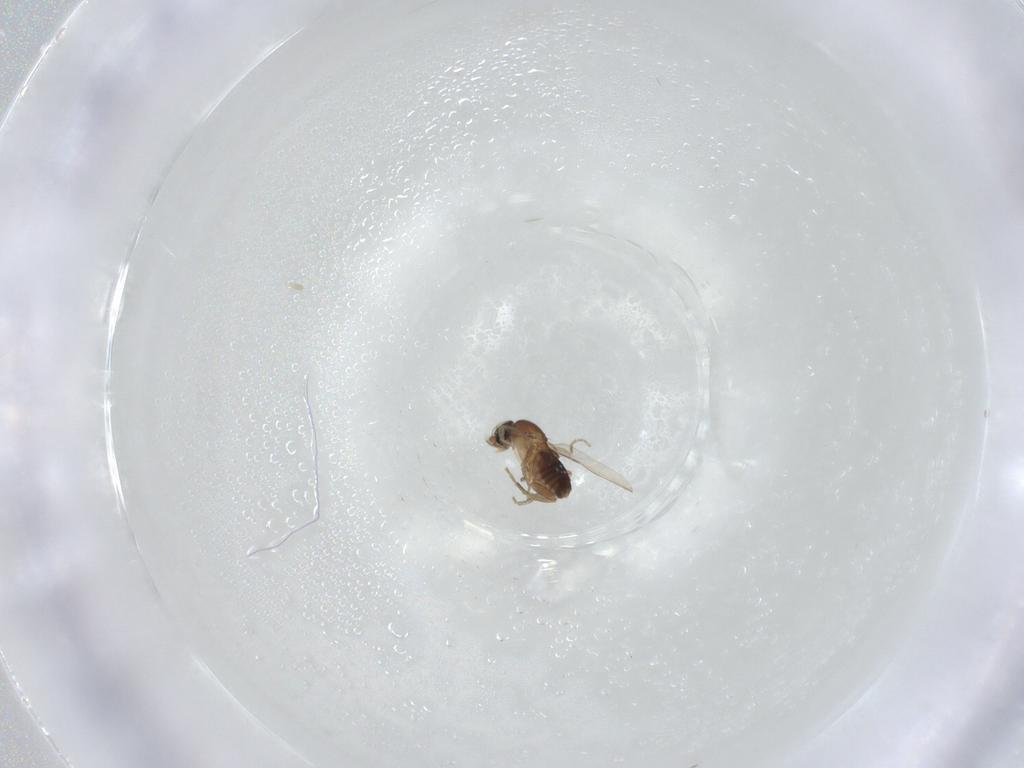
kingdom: Animalia
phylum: Arthropoda
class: Insecta
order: Diptera
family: Phoridae
